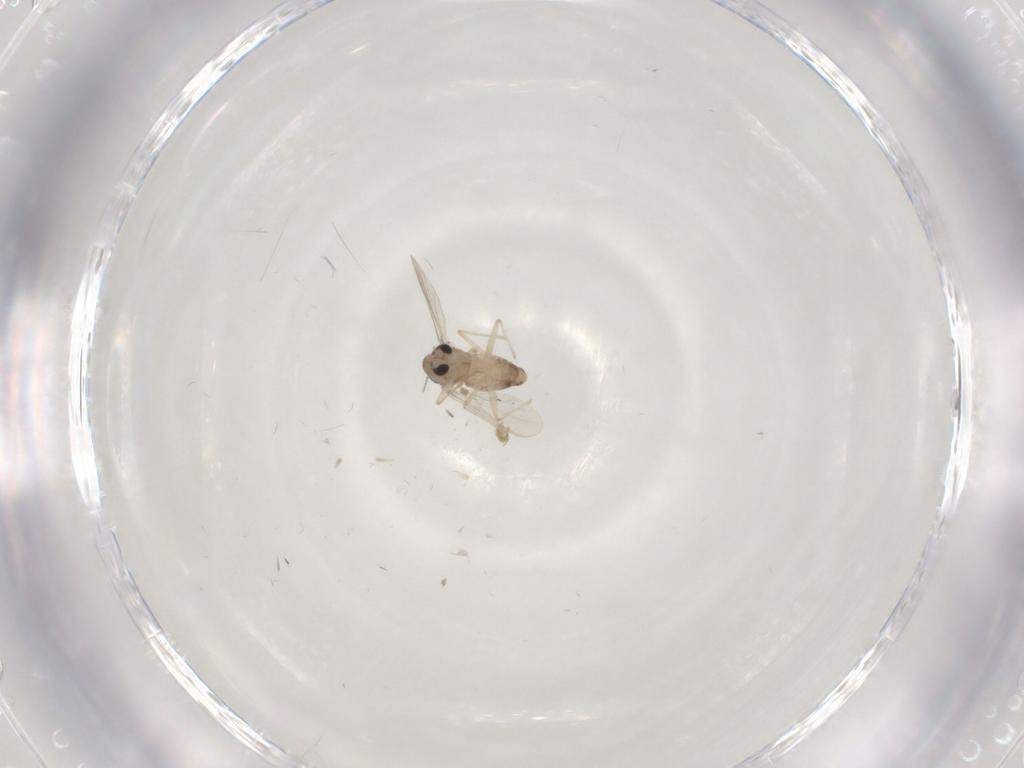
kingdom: Animalia
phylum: Arthropoda
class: Insecta
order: Diptera
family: Chironomidae
